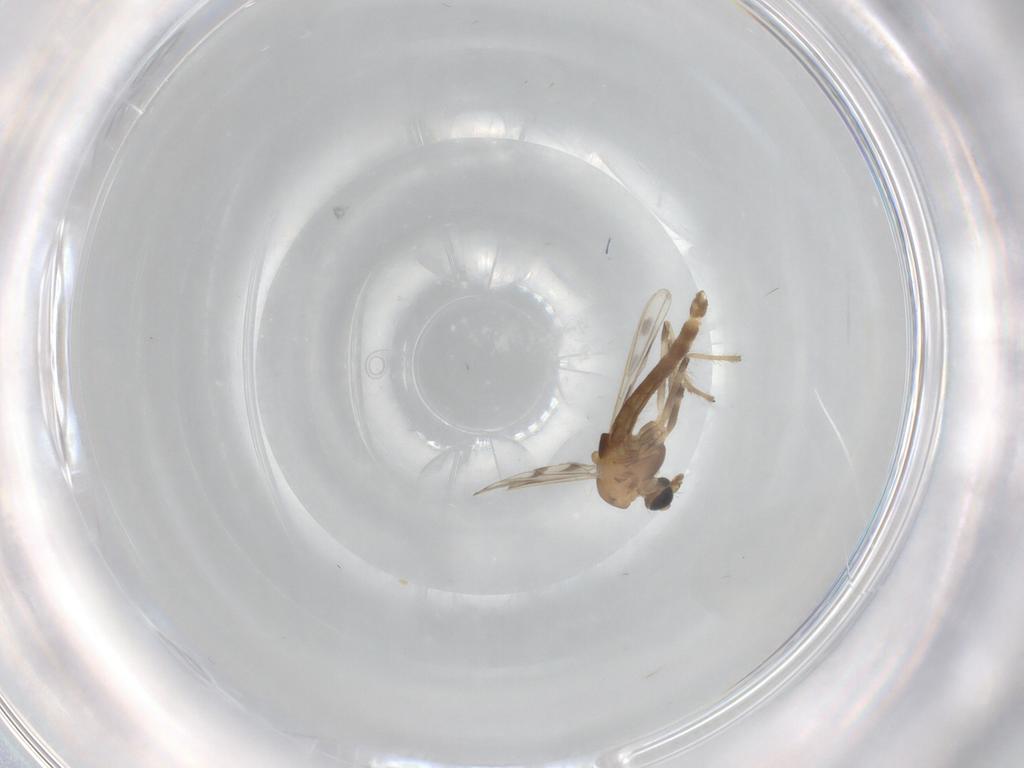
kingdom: Animalia
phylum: Arthropoda
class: Insecta
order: Diptera
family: Chironomidae
